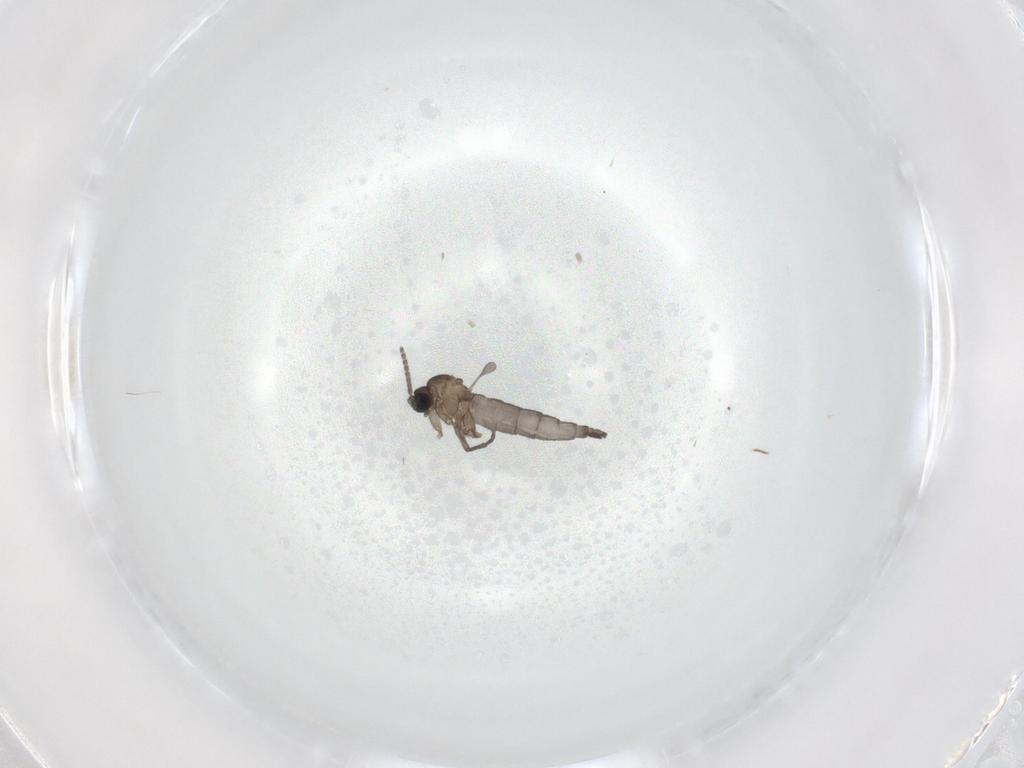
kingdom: Animalia
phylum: Arthropoda
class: Insecta
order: Diptera
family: Sciaridae
